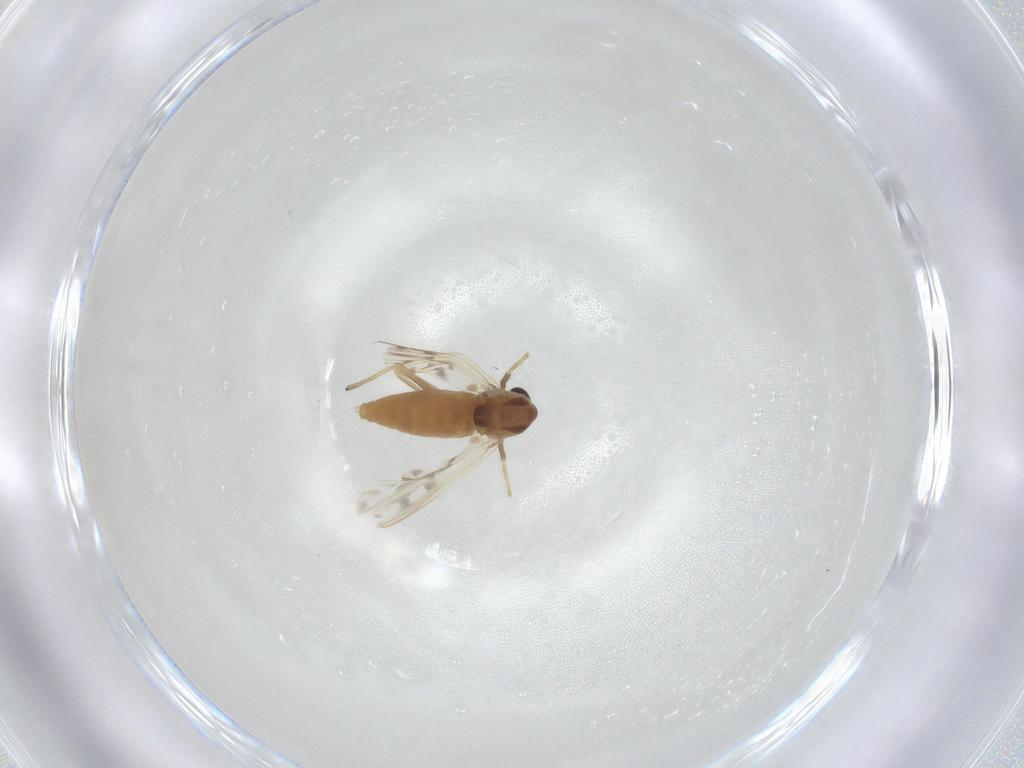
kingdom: Animalia
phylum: Arthropoda
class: Insecta
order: Diptera
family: Chironomidae
